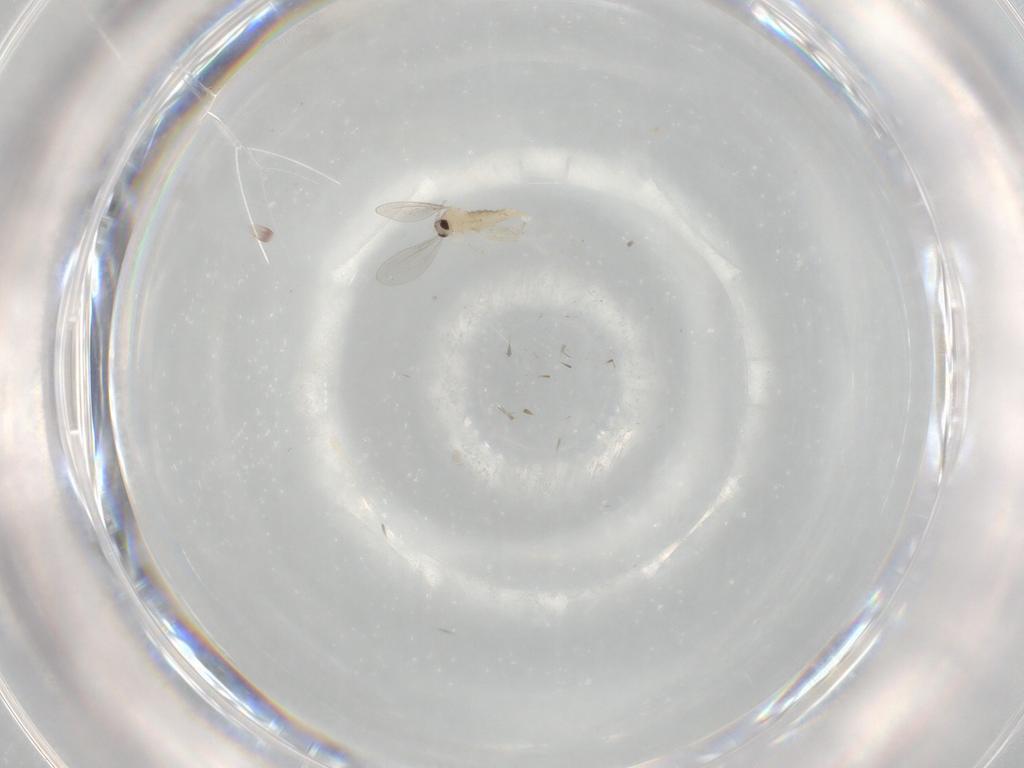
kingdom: Animalia
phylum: Arthropoda
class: Insecta
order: Diptera
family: Cecidomyiidae
